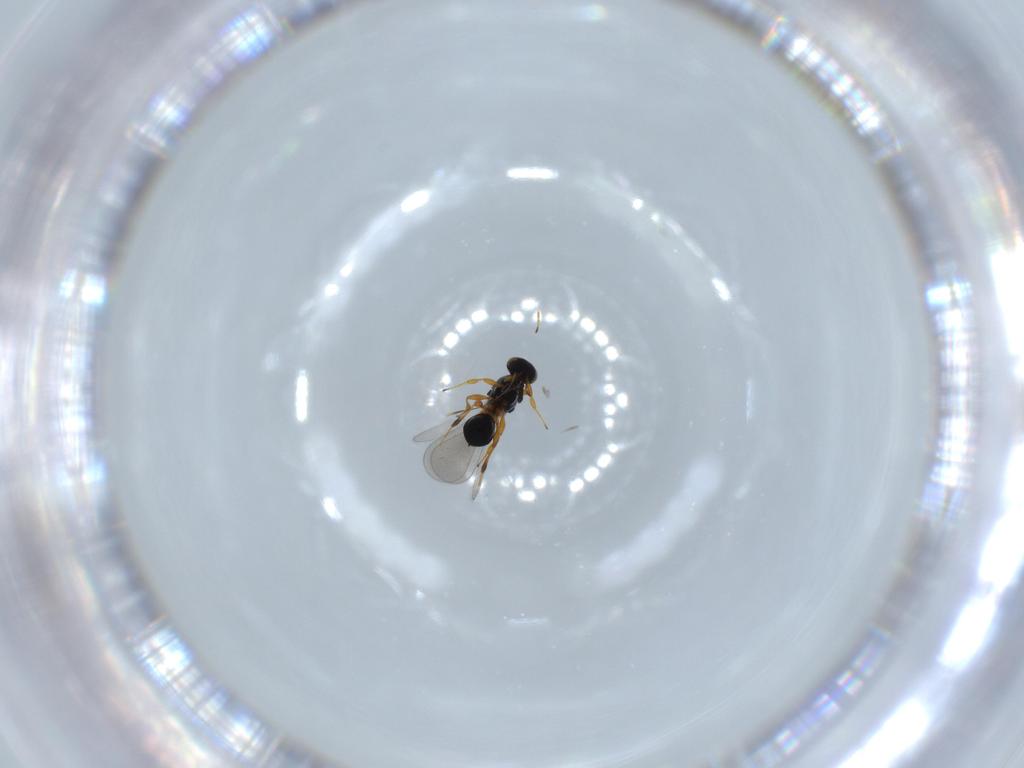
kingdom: Animalia
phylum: Arthropoda
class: Insecta
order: Hymenoptera
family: Platygastridae
